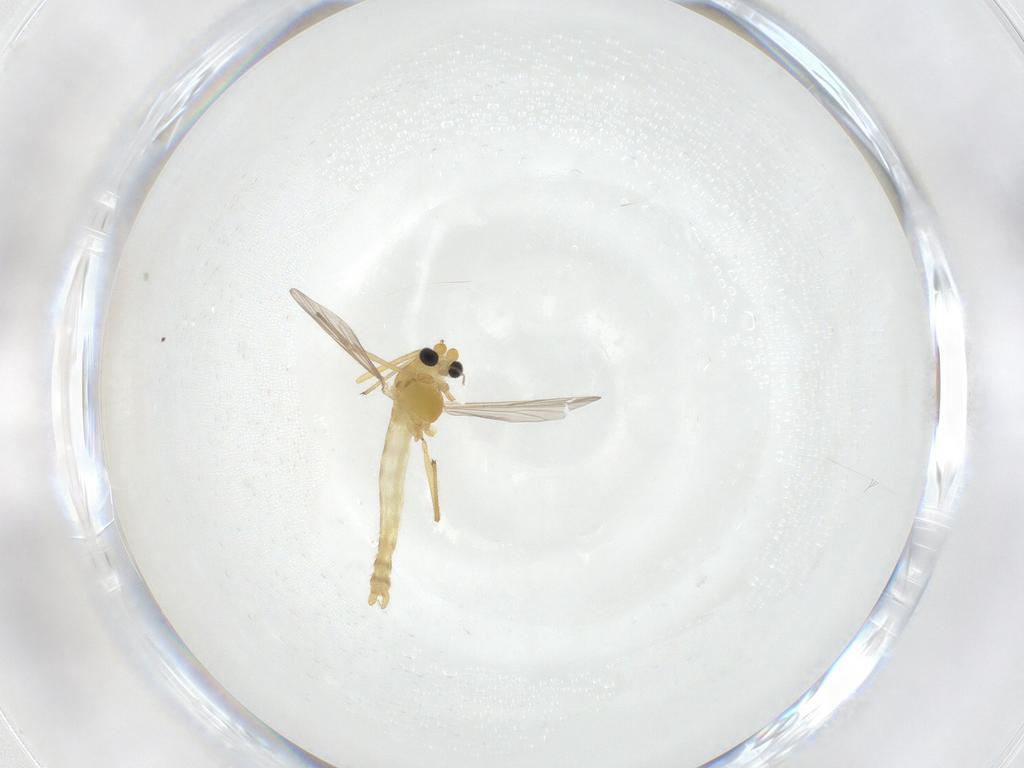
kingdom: Animalia
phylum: Arthropoda
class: Insecta
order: Diptera
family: Chironomidae
